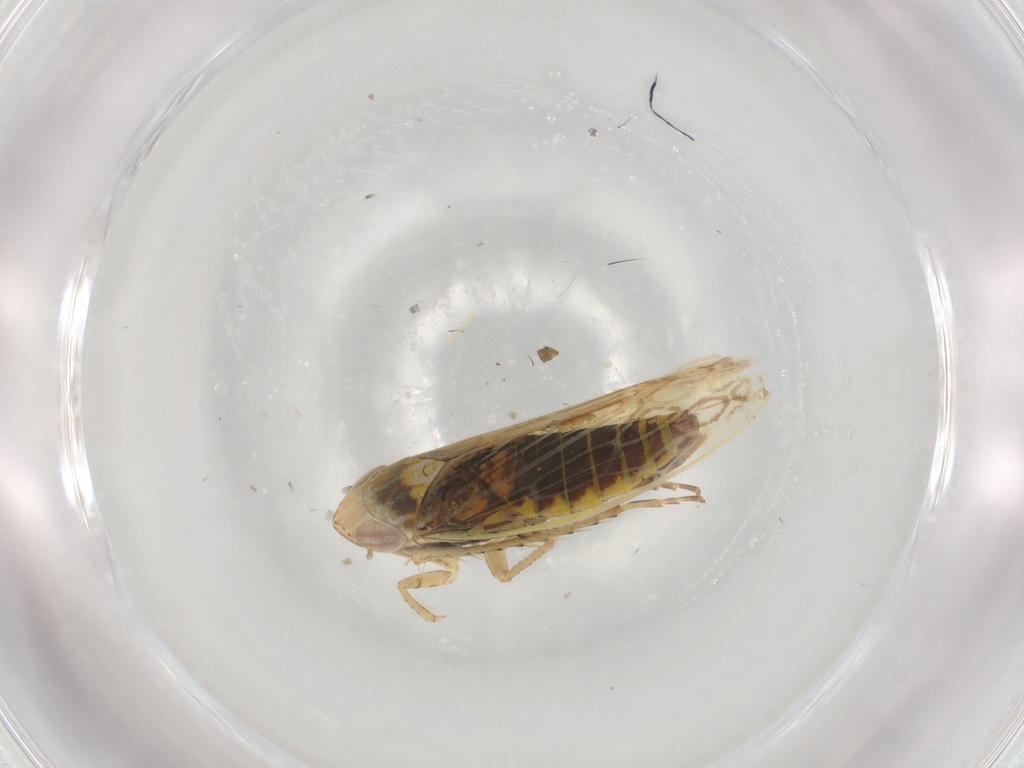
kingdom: Animalia
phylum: Arthropoda
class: Insecta
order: Hemiptera
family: Cicadellidae
